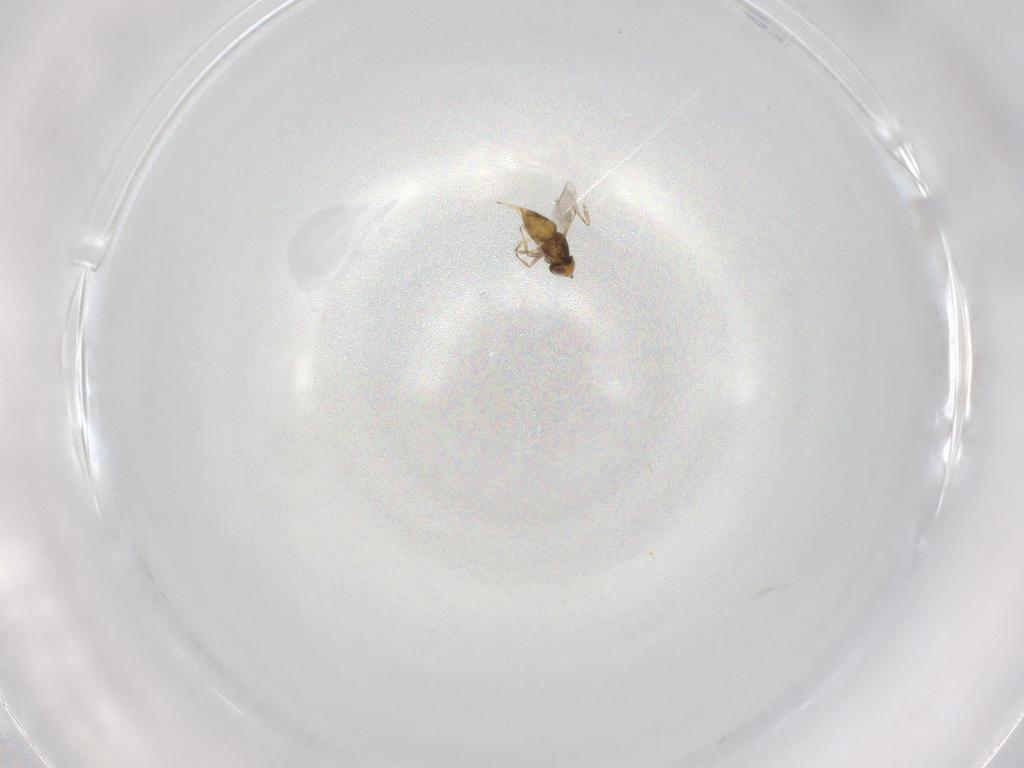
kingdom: Animalia
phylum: Arthropoda
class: Insecta
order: Hymenoptera
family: Encyrtidae
